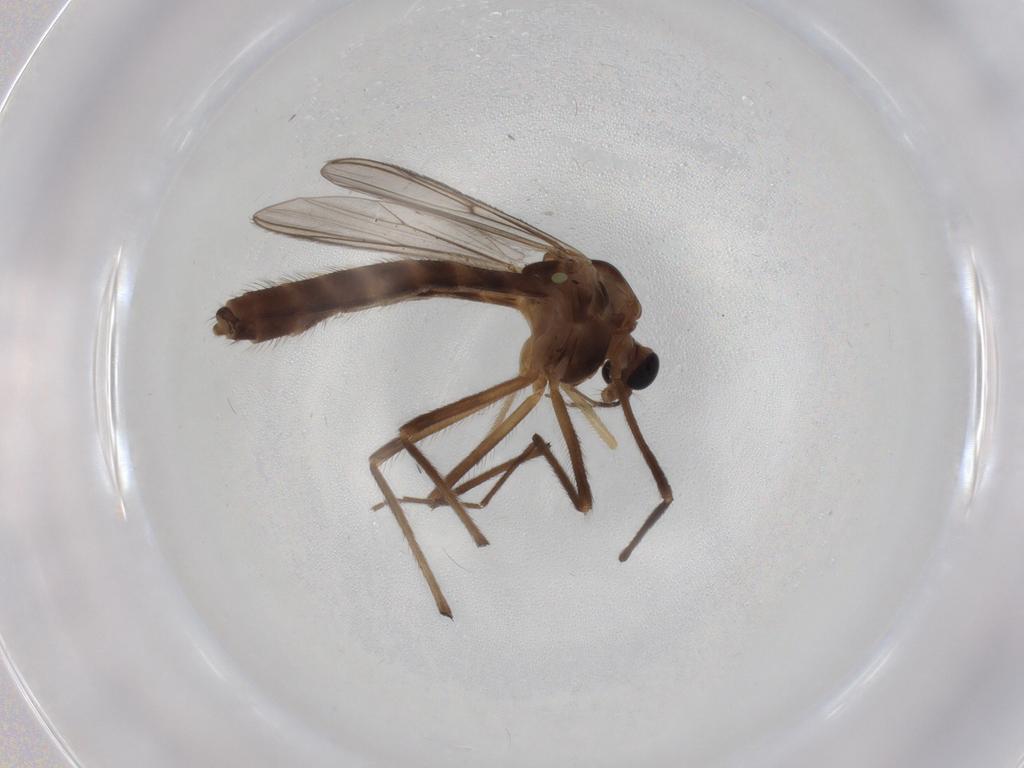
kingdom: Animalia
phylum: Arthropoda
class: Insecta
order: Diptera
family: Chironomidae
